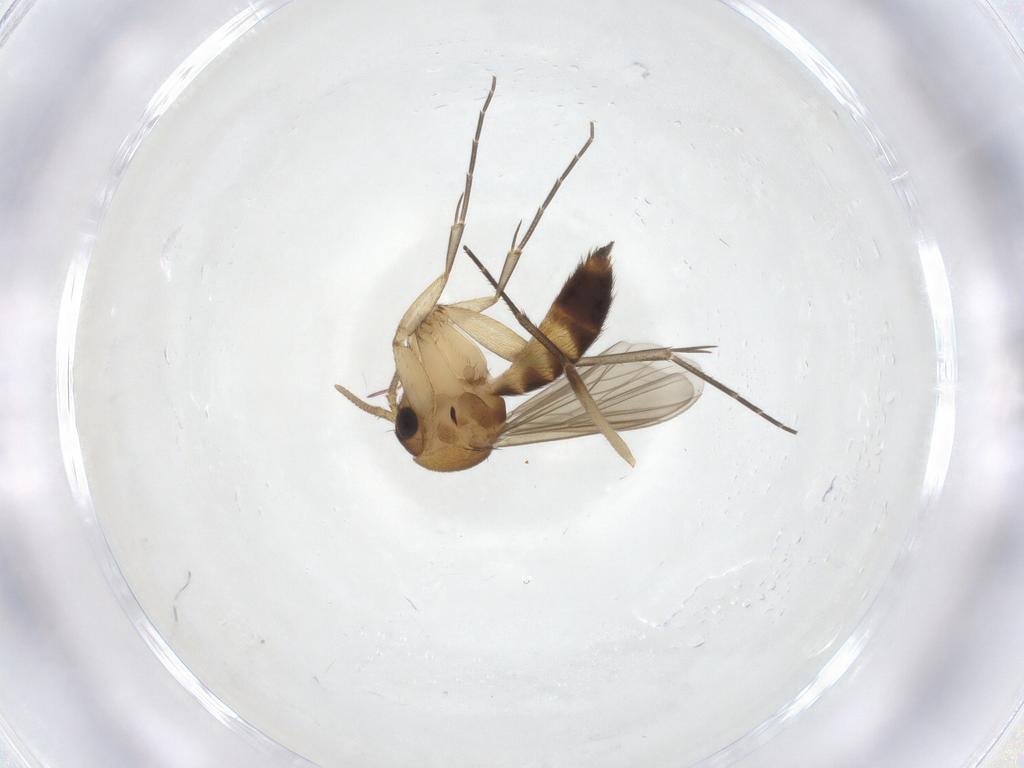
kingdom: Animalia
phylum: Arthropoda
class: Insecta
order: Diptera
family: Mycetophilidae
